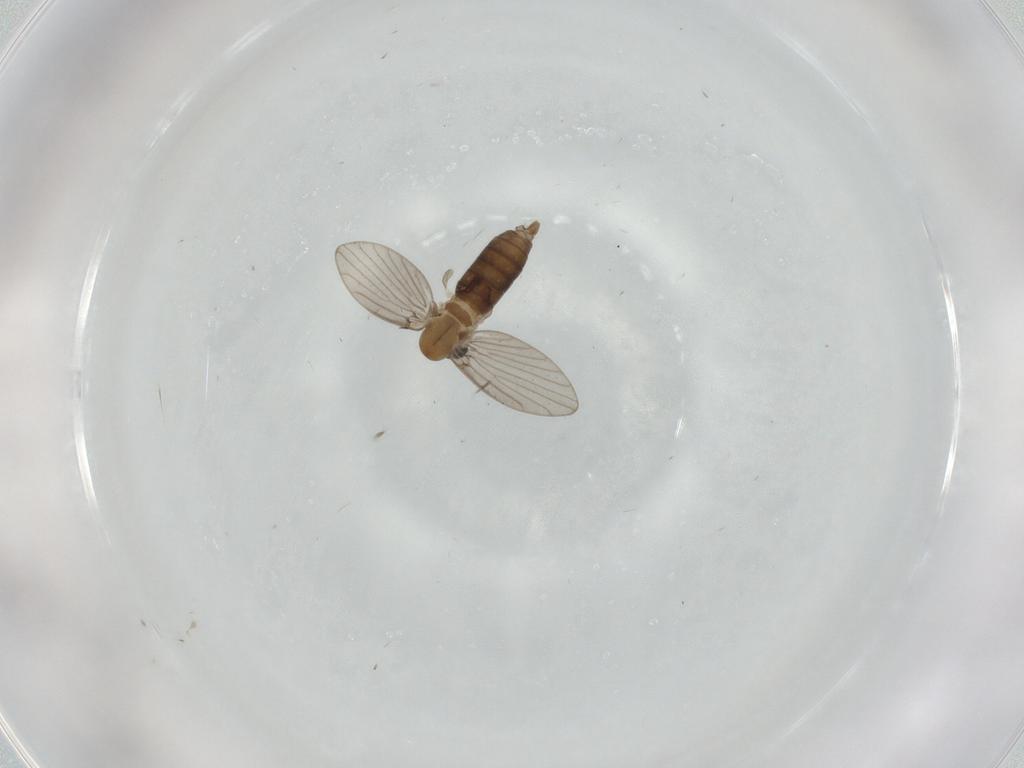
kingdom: Animalia
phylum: Arthropoda
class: Insecta
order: Diptera
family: Psychodidae
